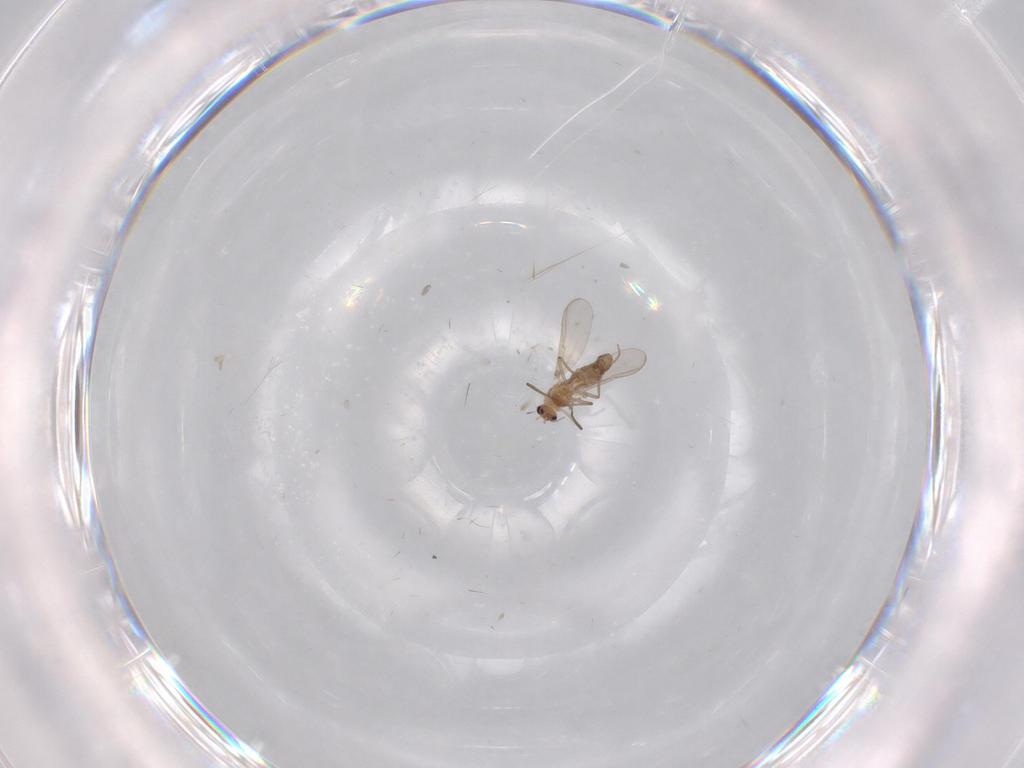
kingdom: Animalia
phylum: Arthropoda
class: Insecta
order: Diptera
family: Chironomidae
